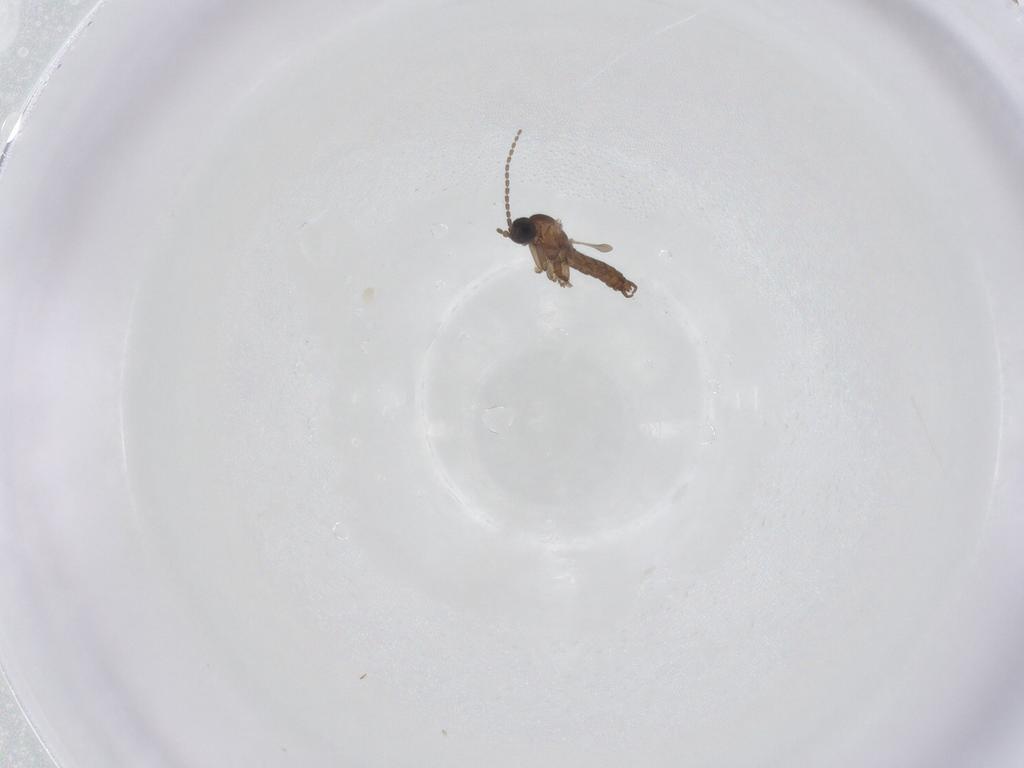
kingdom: Animalia
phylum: Arthropoda
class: Insecta
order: Diptera
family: Sciaridae
